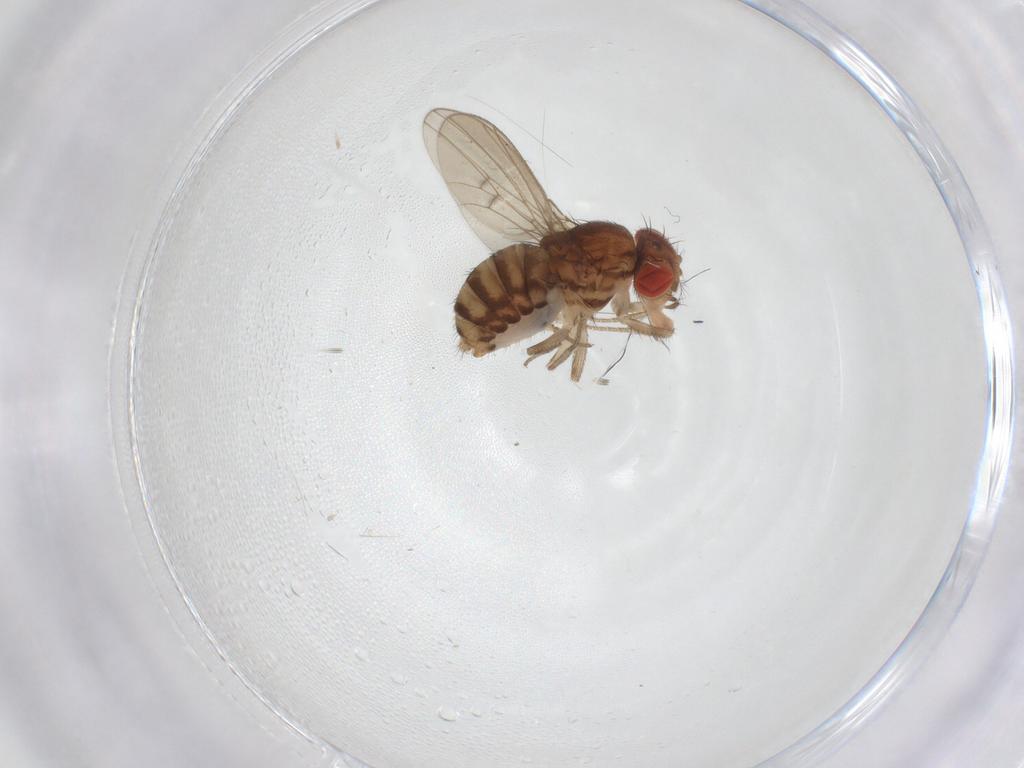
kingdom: Animalia
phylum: Arthropoda
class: Insecta
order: Diptera
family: Drosophilidae
